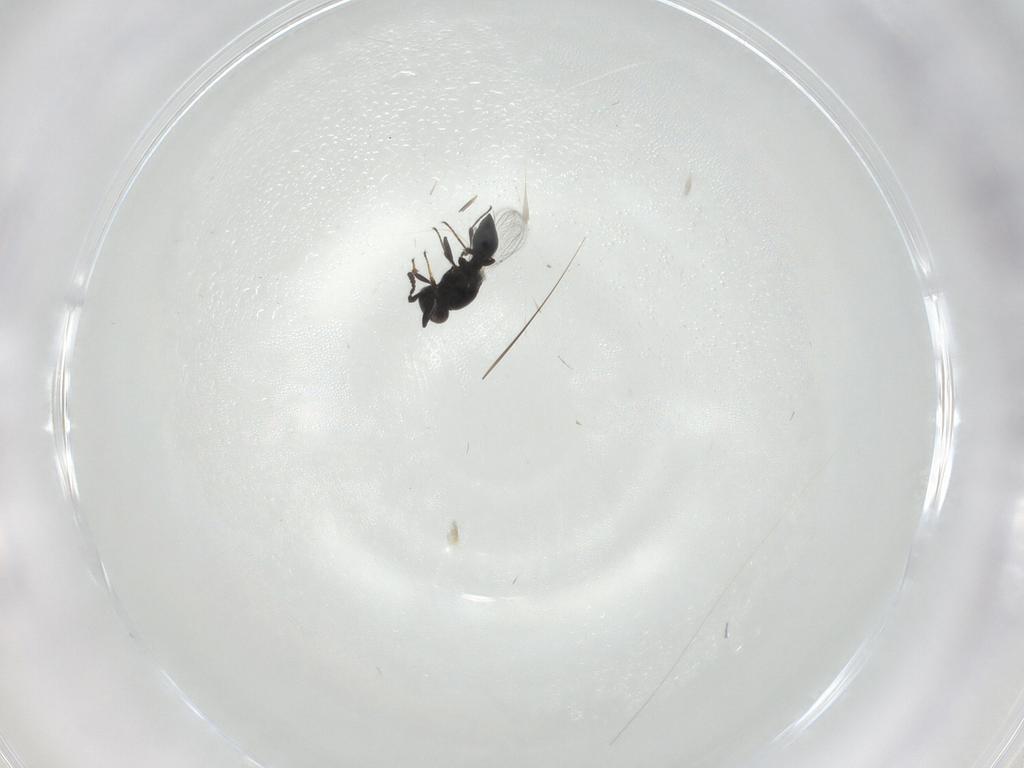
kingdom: Animalia
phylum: Arthropoda
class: Insecta
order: Hymenoptera
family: Platygastridae
